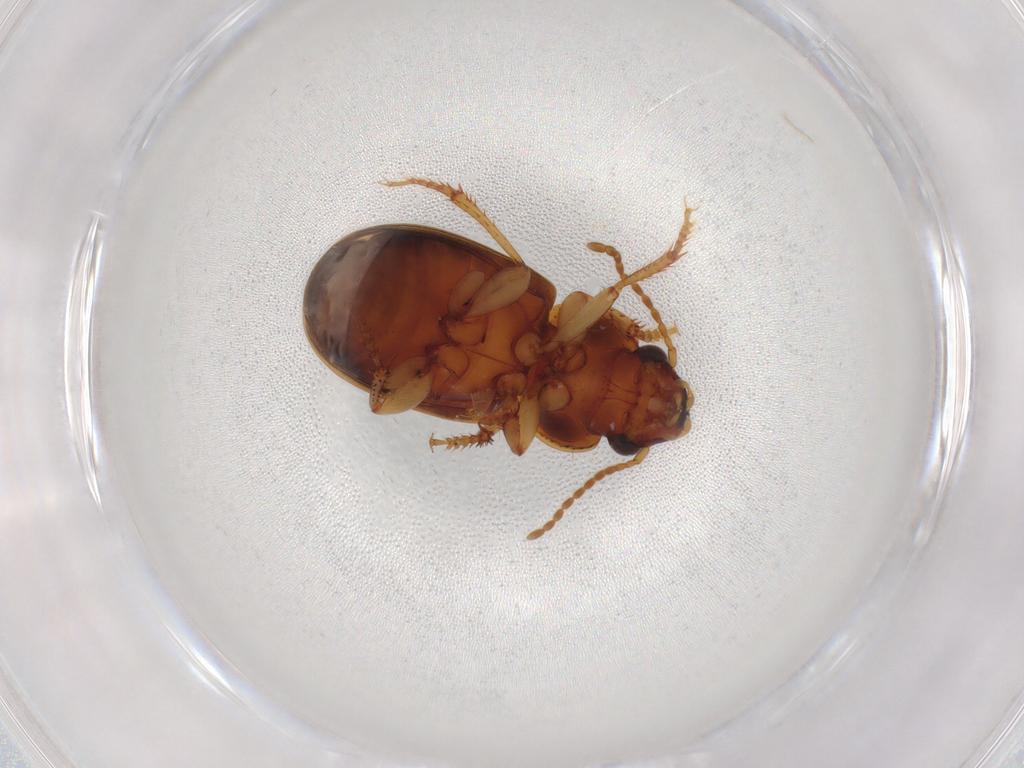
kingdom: Animalia
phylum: Arthropoda
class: Insecta
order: Coleoptera
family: Carabidae
